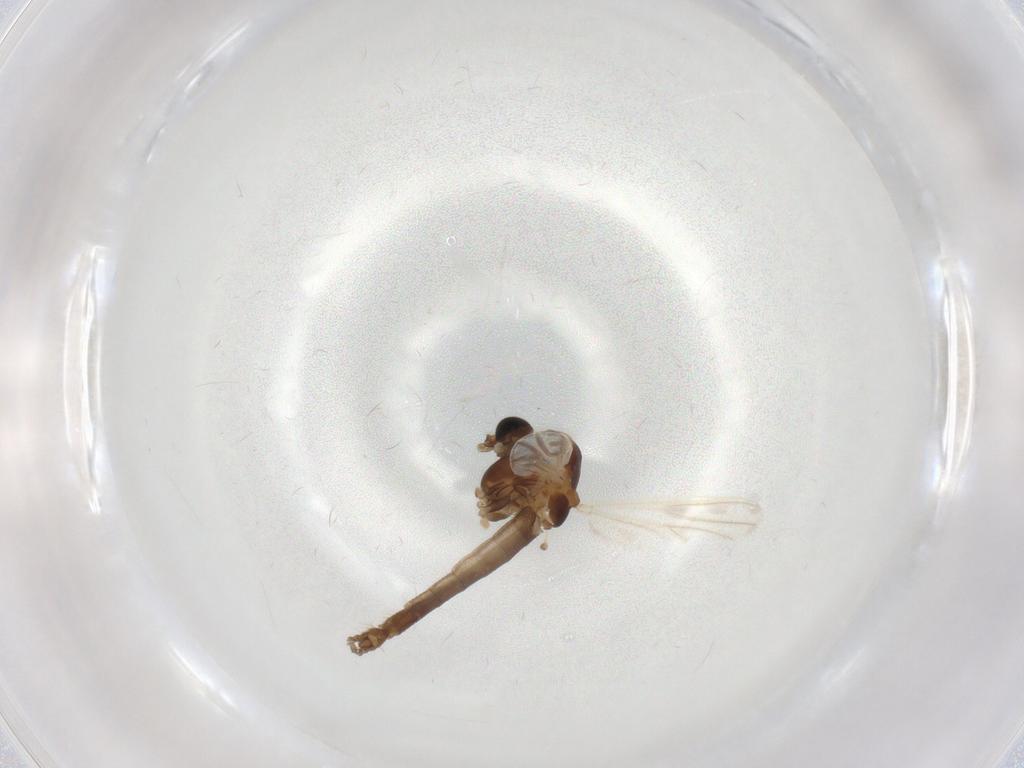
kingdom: Animalia
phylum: Arthropoda
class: Insecta
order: Diptera
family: Chironomidae
